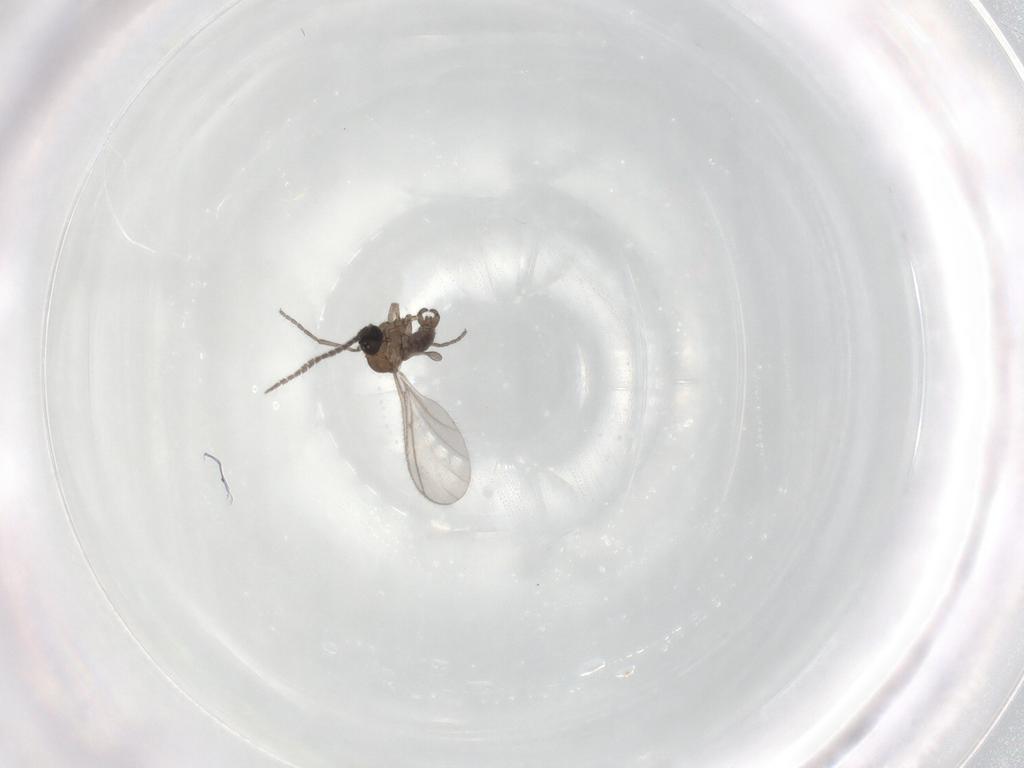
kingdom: Animalia
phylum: Arthropoda
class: Insecta
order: Diptera
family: Sciaridae
